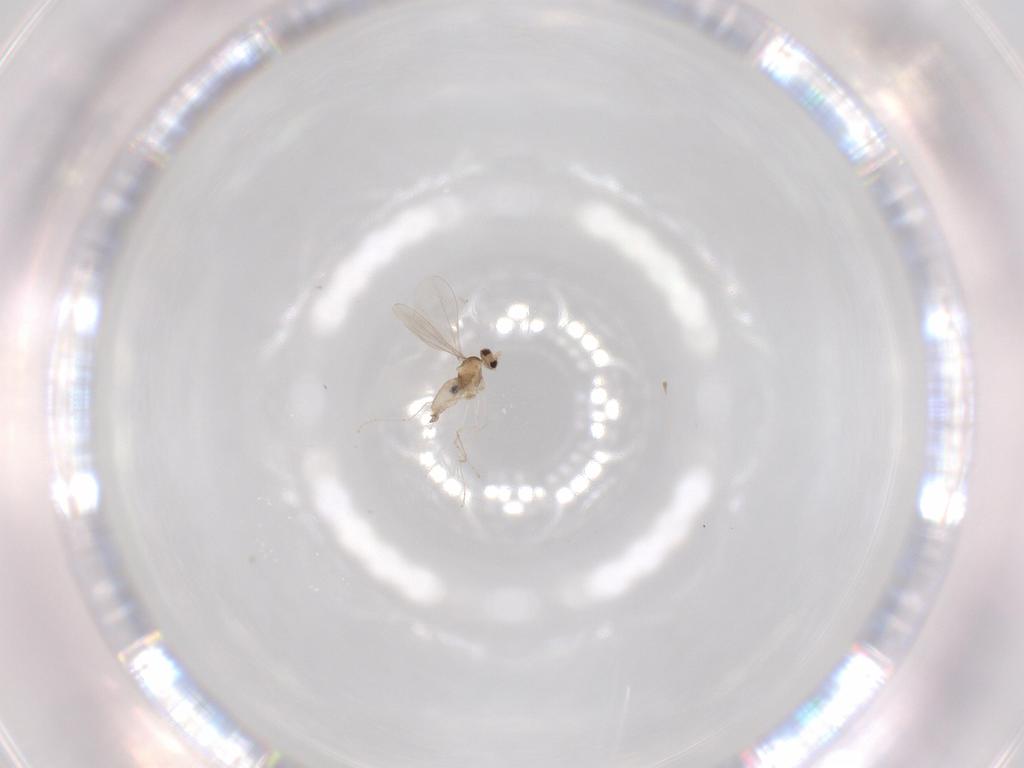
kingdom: Animalia
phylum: Arthropoda
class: Insecta
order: Diptera
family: Cecidomyiidae
